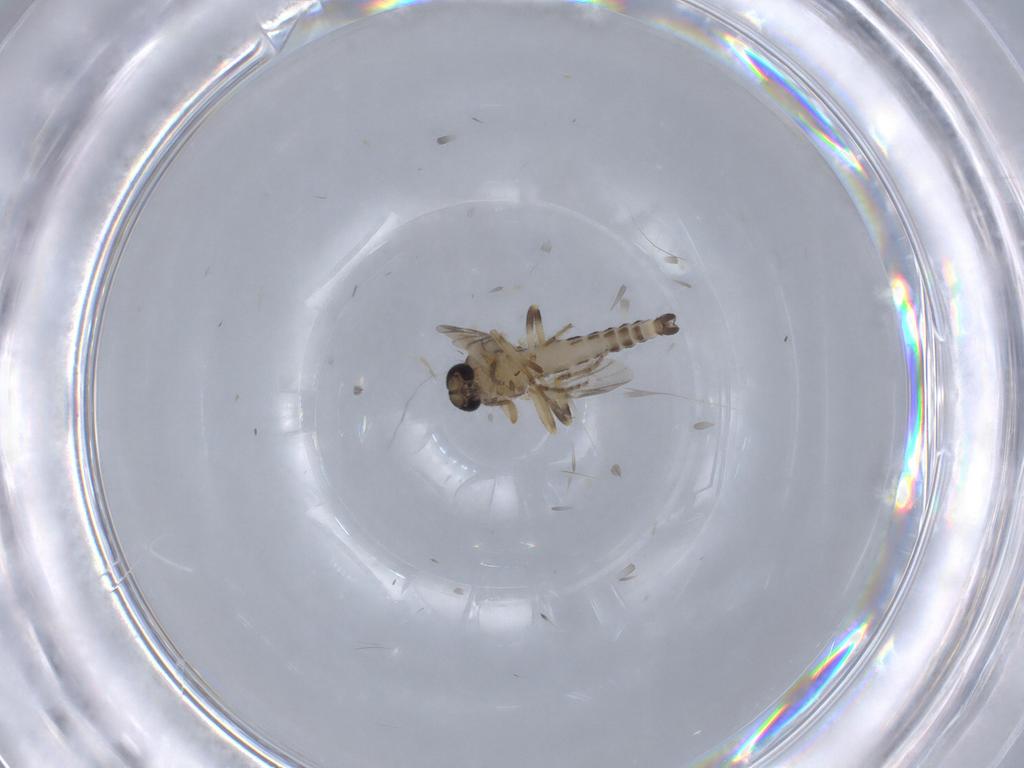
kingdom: Animalia
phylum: Arthropoda
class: Insecta
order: Diptera
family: Ceratopogonidae
